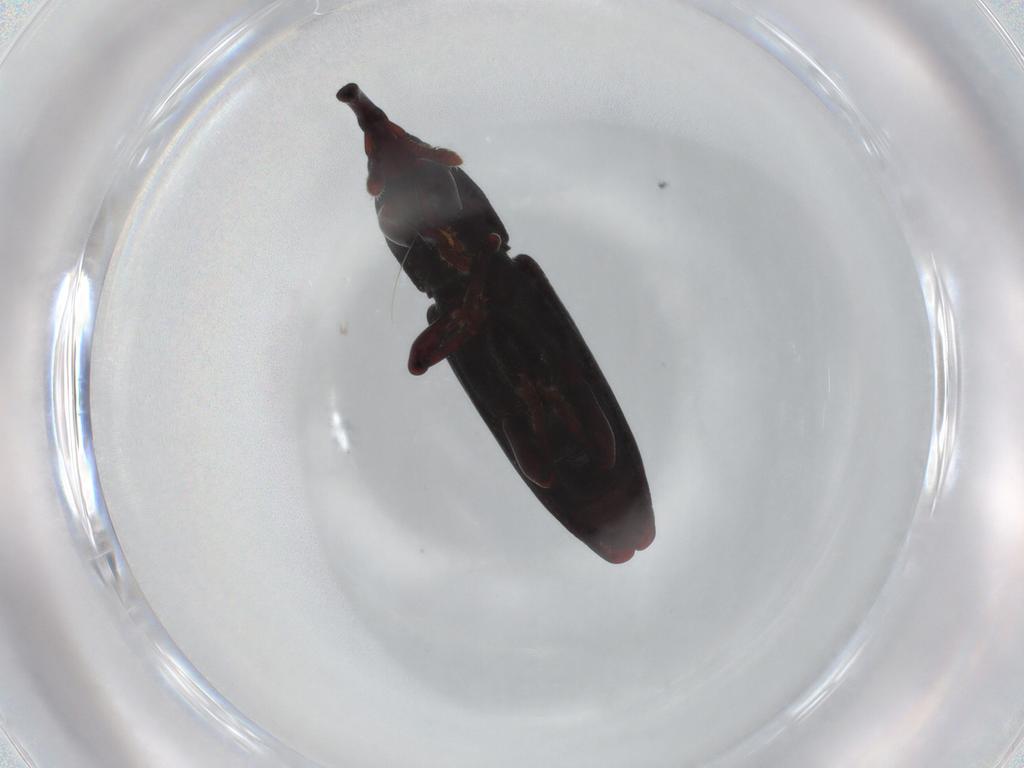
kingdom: Animalia
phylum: Arthropoda
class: Insecta
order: Coleoptera
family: Curculionidae
